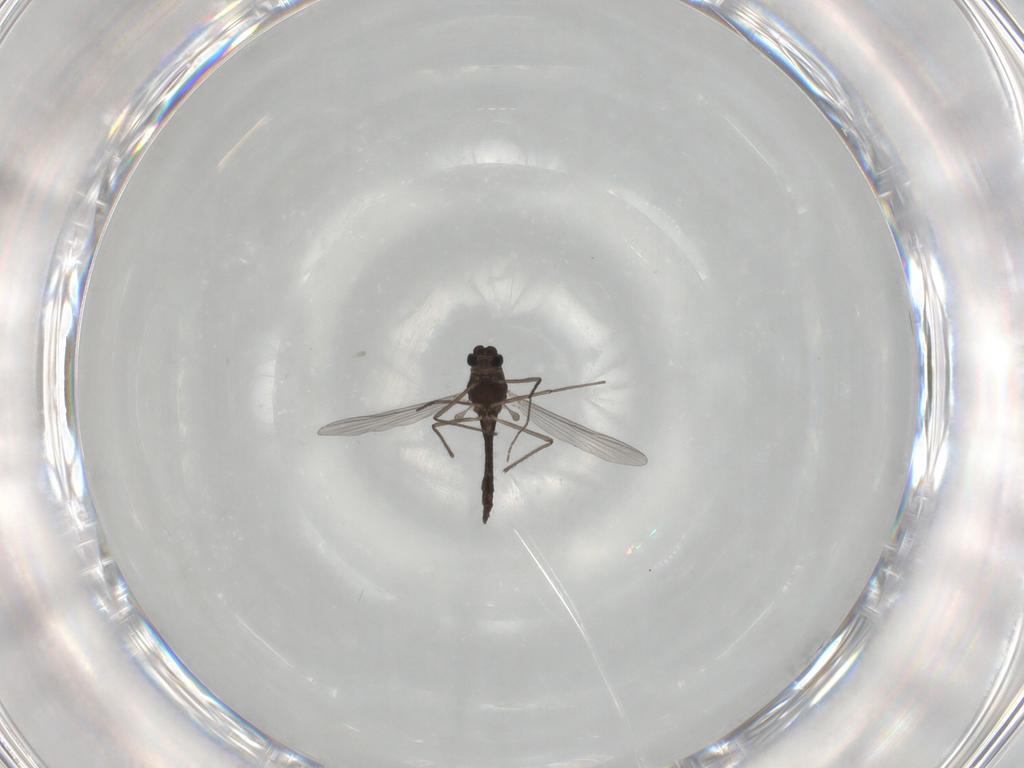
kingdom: Animalia
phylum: Arthropoda
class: Insecta
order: Diptera
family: Chironomidae
